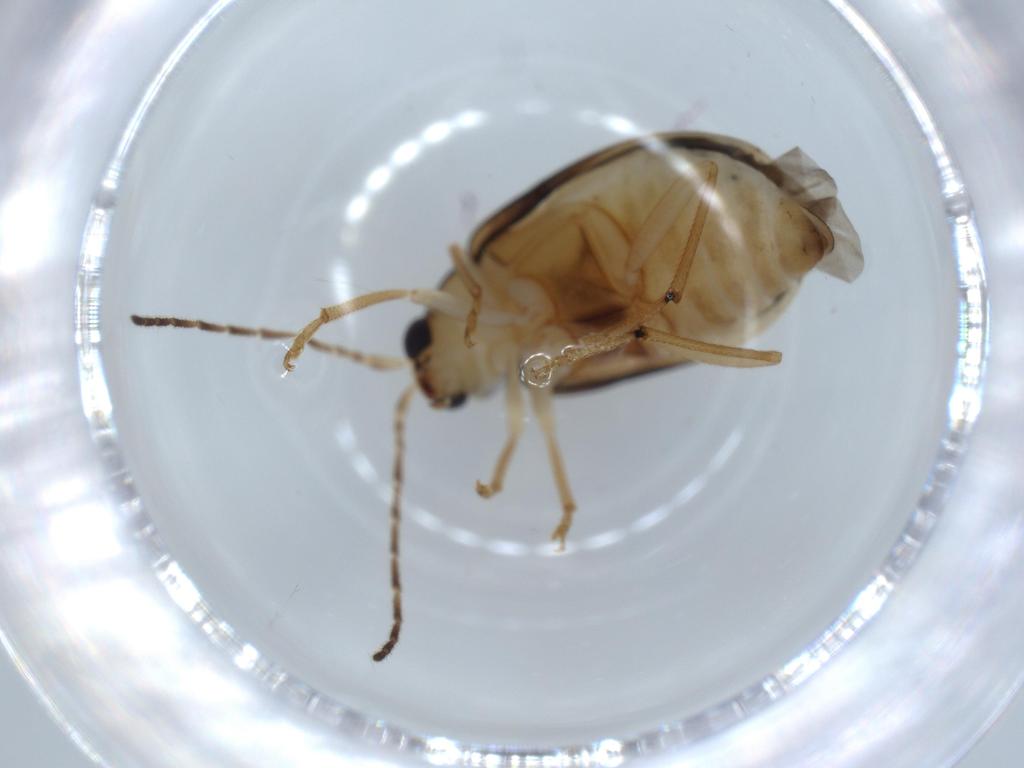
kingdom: Animalia
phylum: Arthropoda
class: Insecta
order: Coleoptera
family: Chrysomelidae
